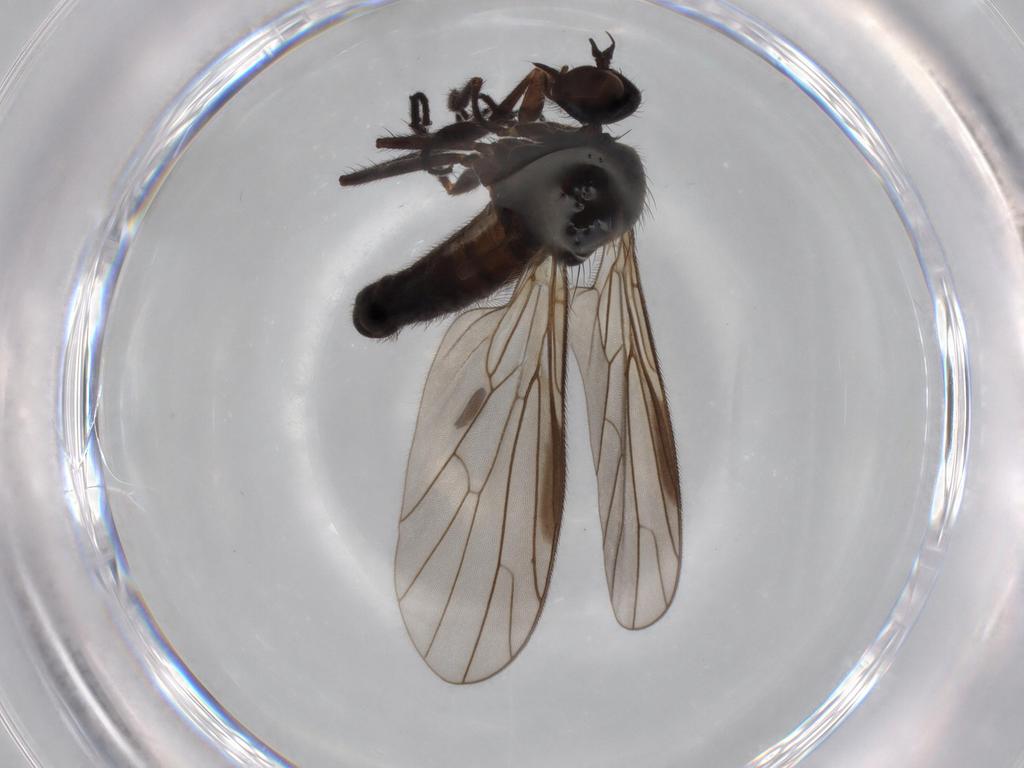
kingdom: Animalia
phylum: Arthropoda
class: Insecta
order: Diptera
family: Empididae
